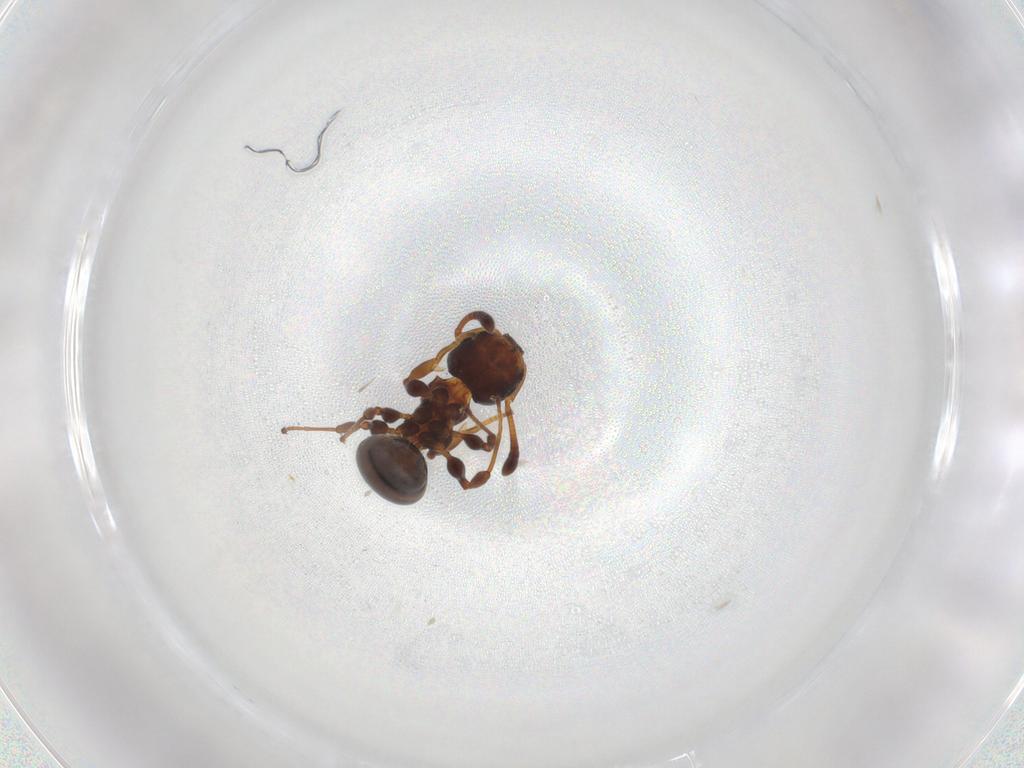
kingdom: Animalia
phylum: Arthropoda
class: Insecta
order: Hymenoptera
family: Formicidae
